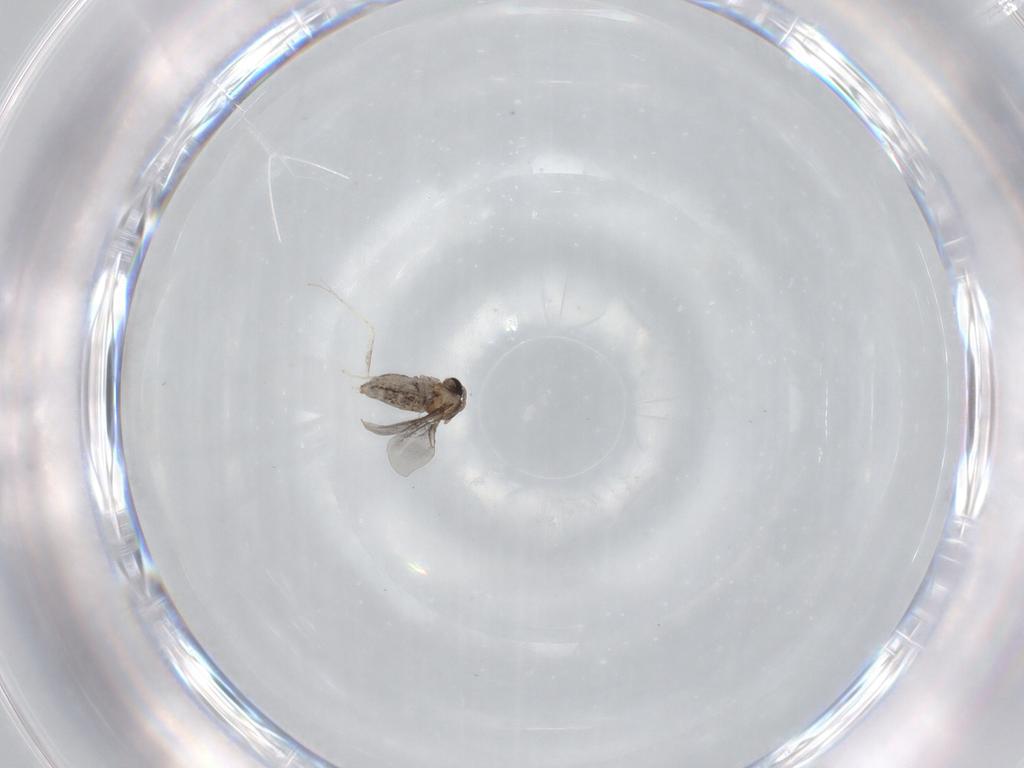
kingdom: Animalia
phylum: Arthropoda
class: Insecta
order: Diptera
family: Cecidomyiidae
